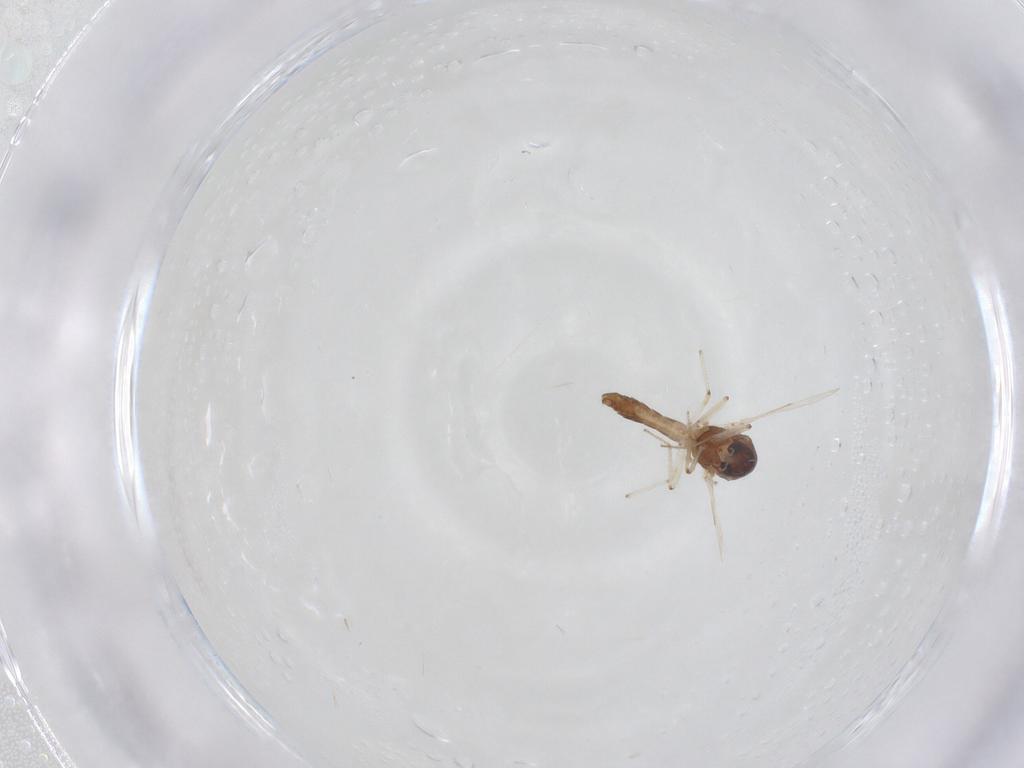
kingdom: Animalia
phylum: Arthropoda
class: Insecta
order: Diptera
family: Ceratopogonidae
